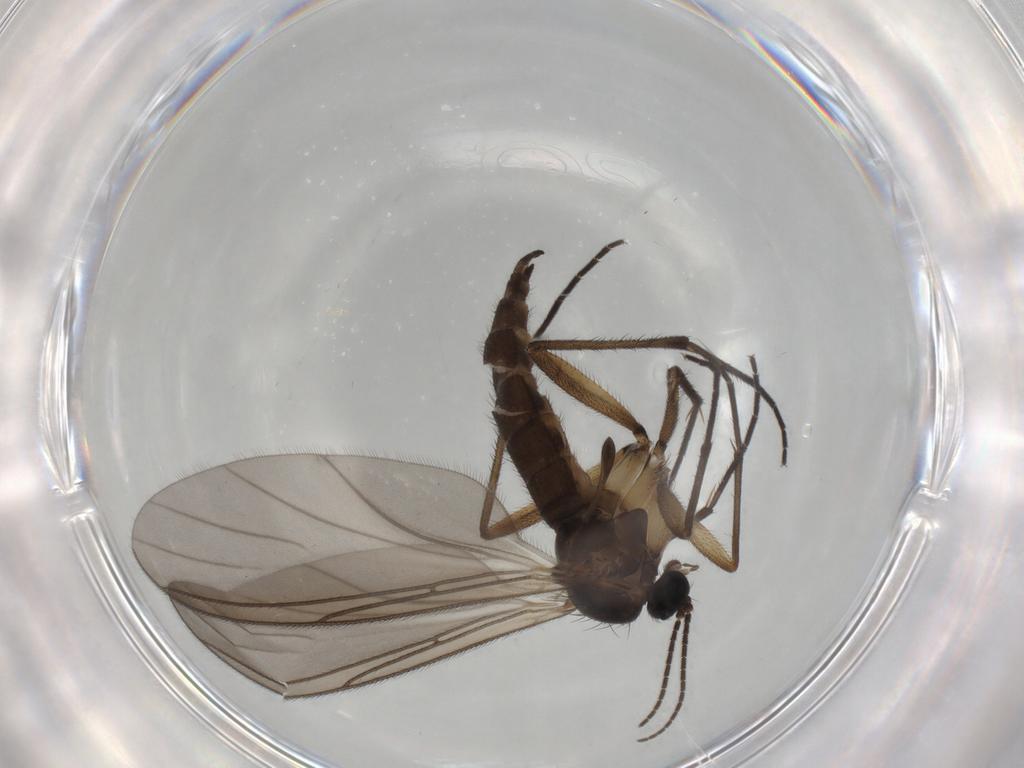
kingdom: Animalia
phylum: Arthropoda
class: Insecta
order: Diptera
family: Sciaridae
